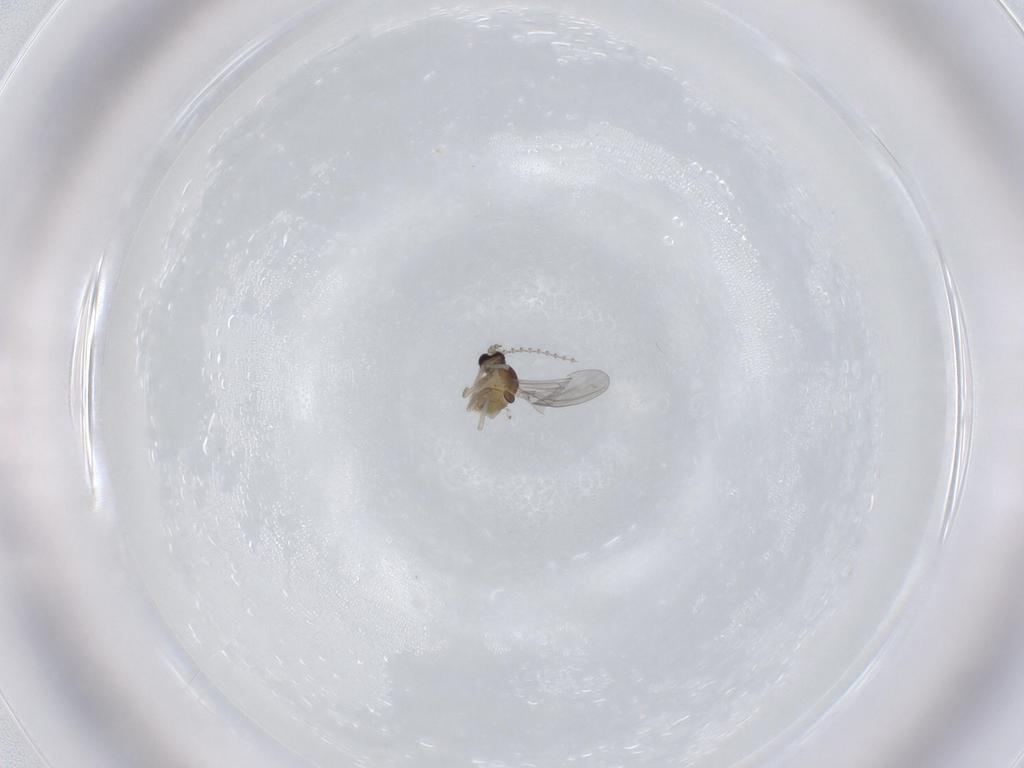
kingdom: Animalia
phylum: Arthropoda
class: Insecta
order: Diptera
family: Cecidomyiidae
